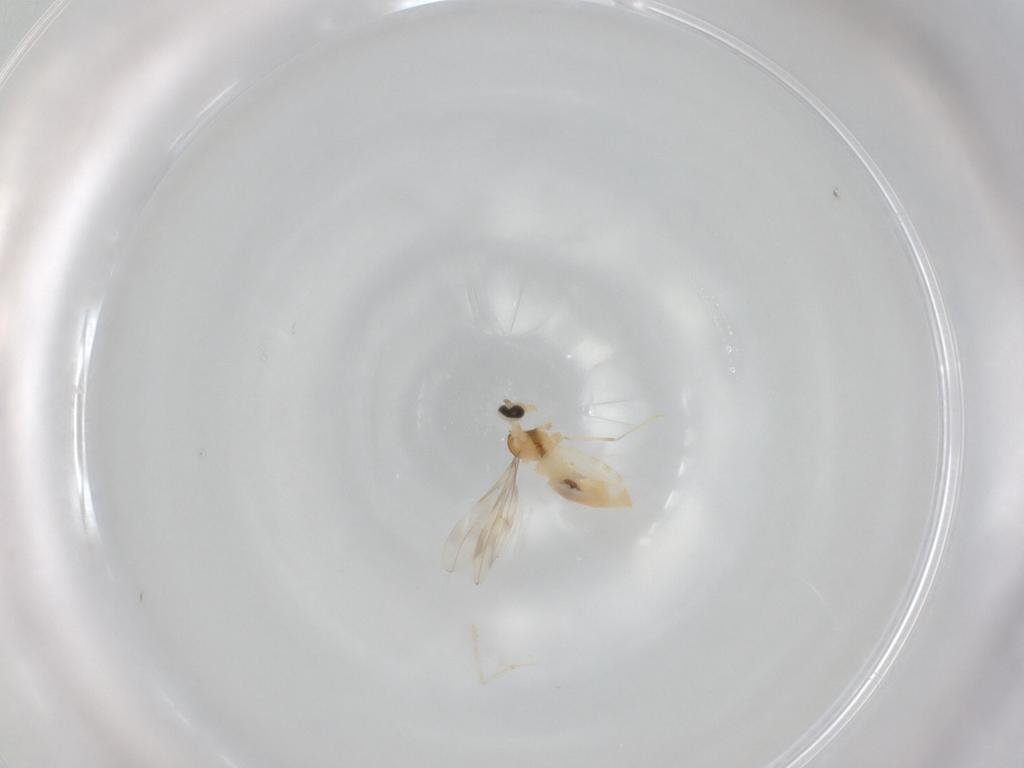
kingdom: Animalia
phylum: Arthropoda
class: Insecta
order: Diptera
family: Cecidomyiidae
